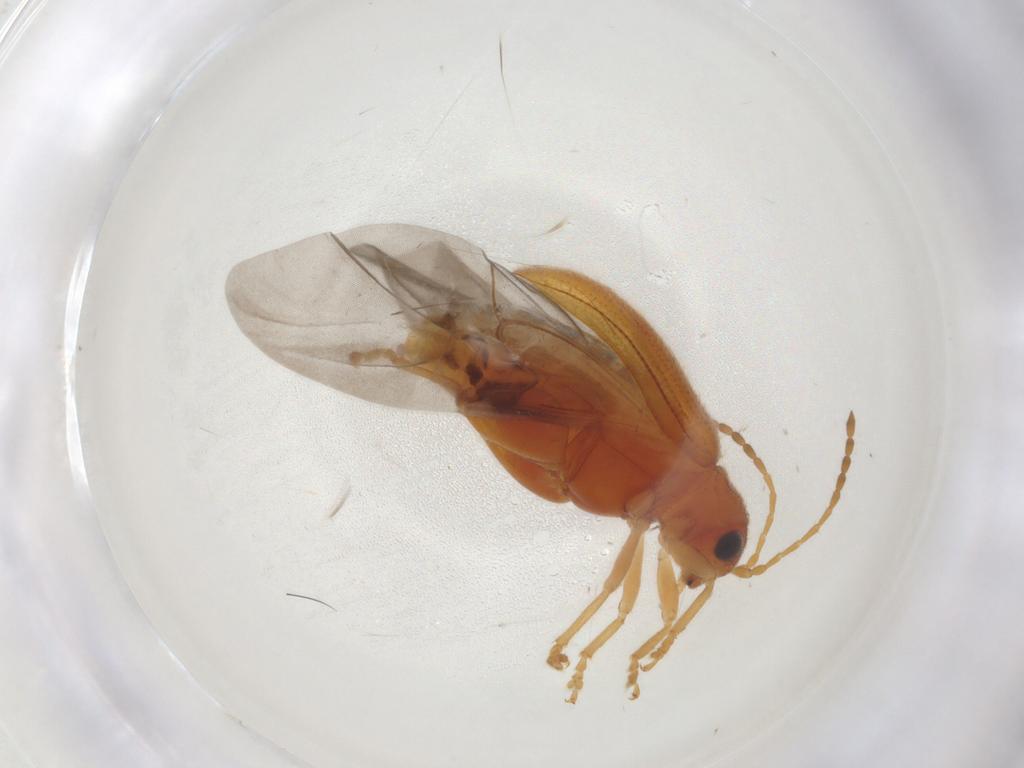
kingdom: Animalia
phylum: Arthropoda
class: Insecta
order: Coleoptera
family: Chrysomelidae
